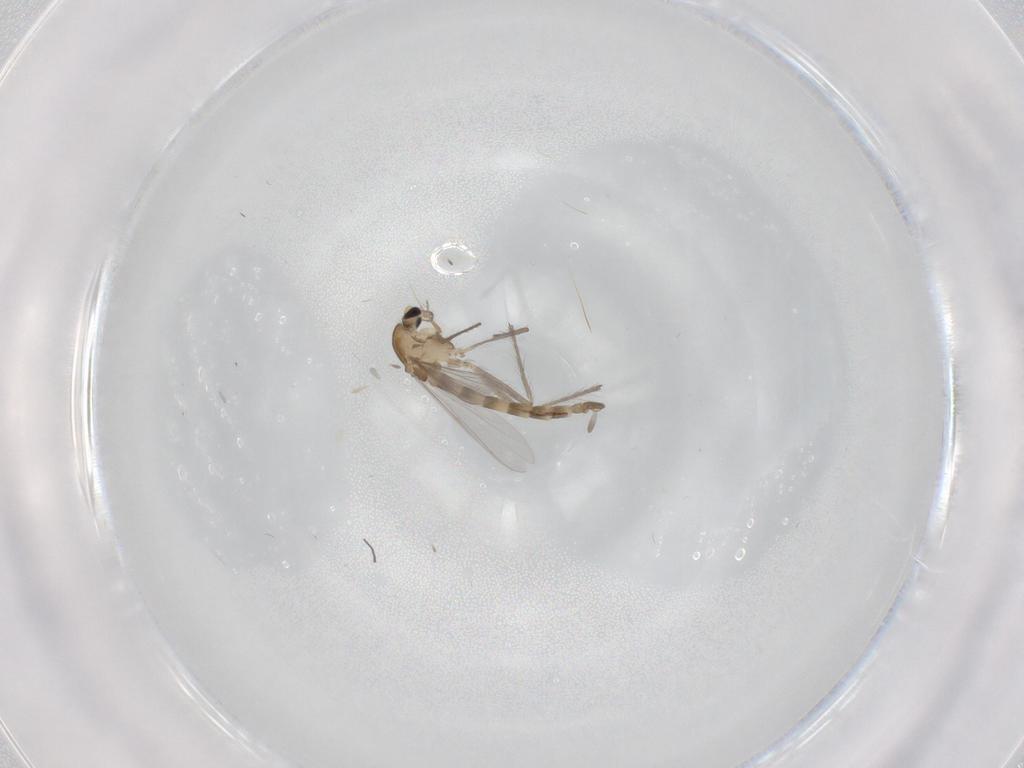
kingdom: Animalia
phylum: Arthropoda
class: Insecta
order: Diptera
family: Chironomidae
